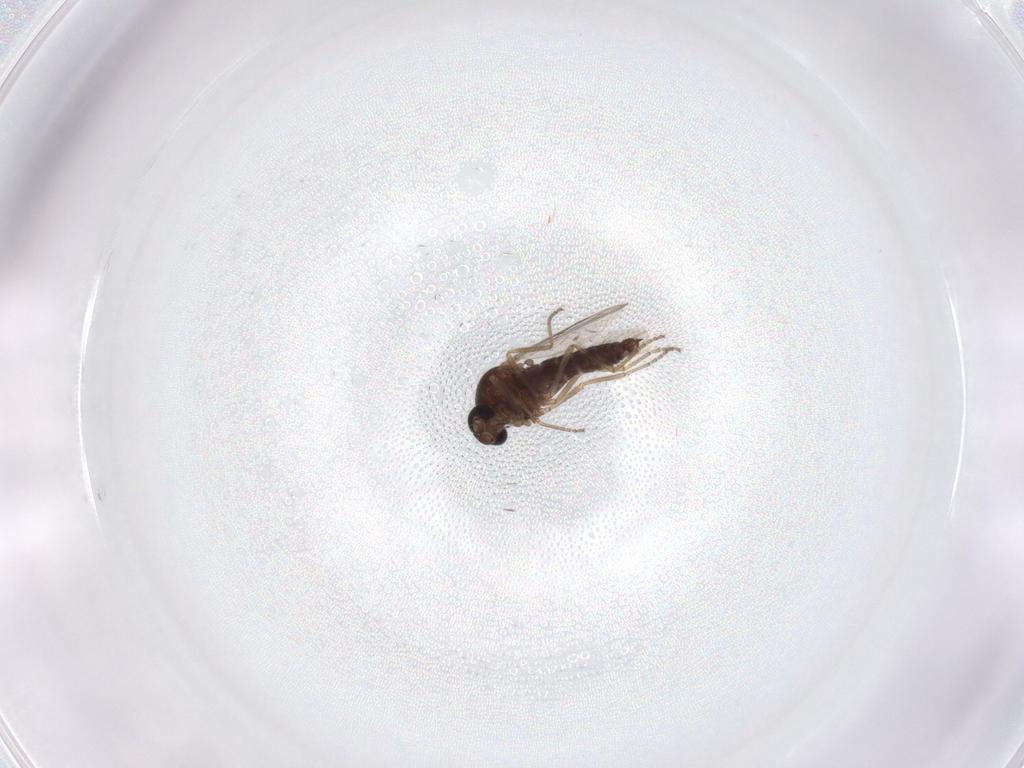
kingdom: Animalia
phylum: Arthropoda
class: Insecta
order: Diptera
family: Ceratopogonidae
